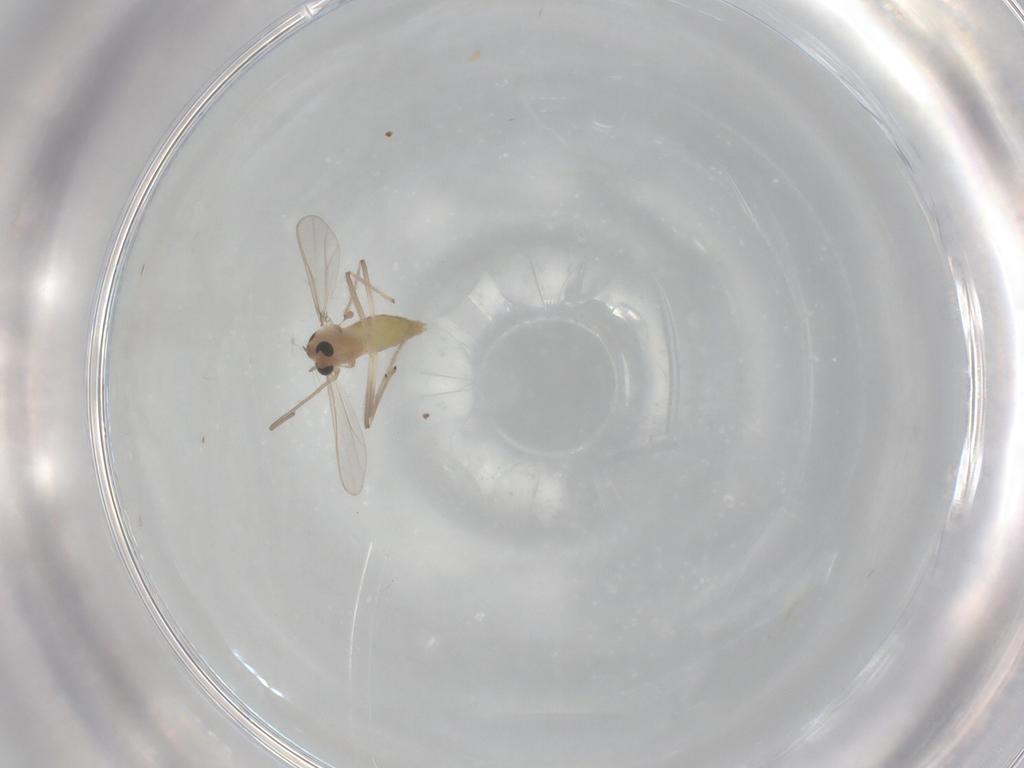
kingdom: Animalia
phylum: Arthropoda
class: Insecta
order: Diptera
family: Chironomidae
